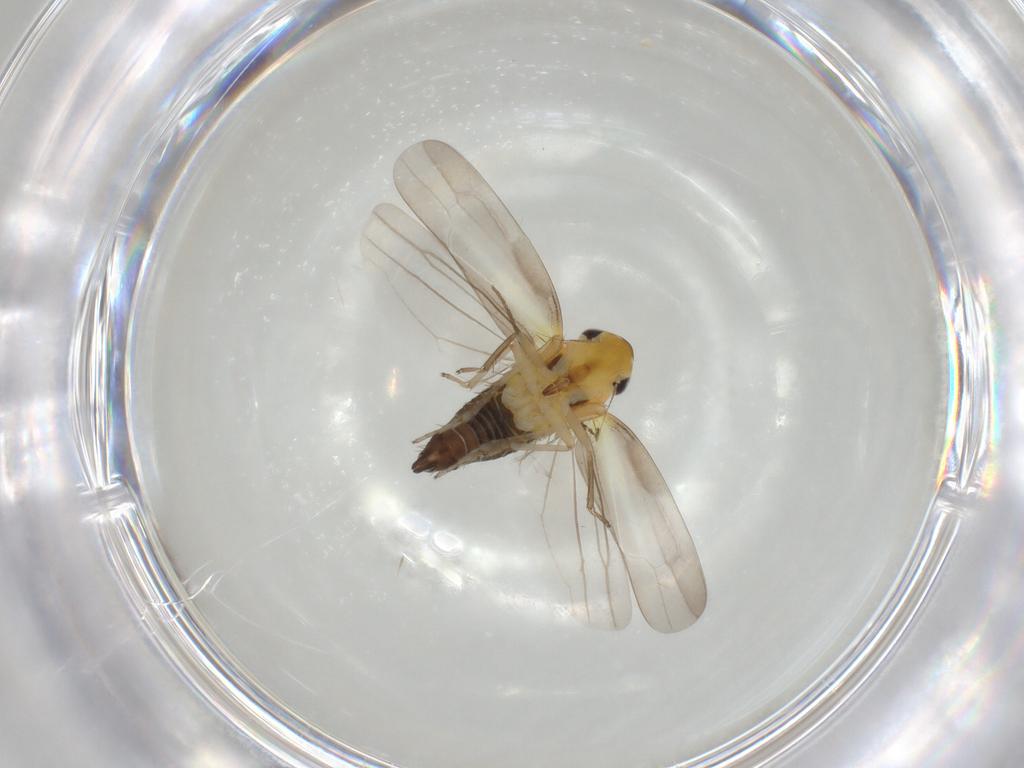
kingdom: Animalia
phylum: Arthropoda
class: Insecta
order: Hemiptera
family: Cicadellidae
